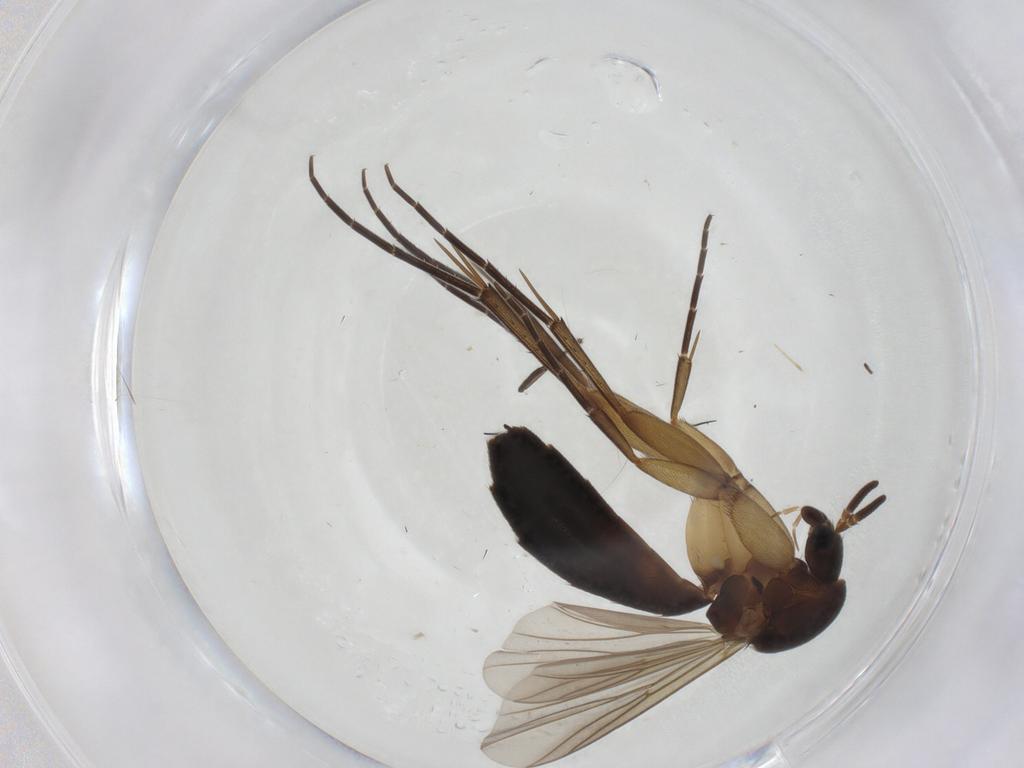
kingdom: Animalia
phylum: Arthropoda
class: Insecta
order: Diptera
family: Mycetophilidae
